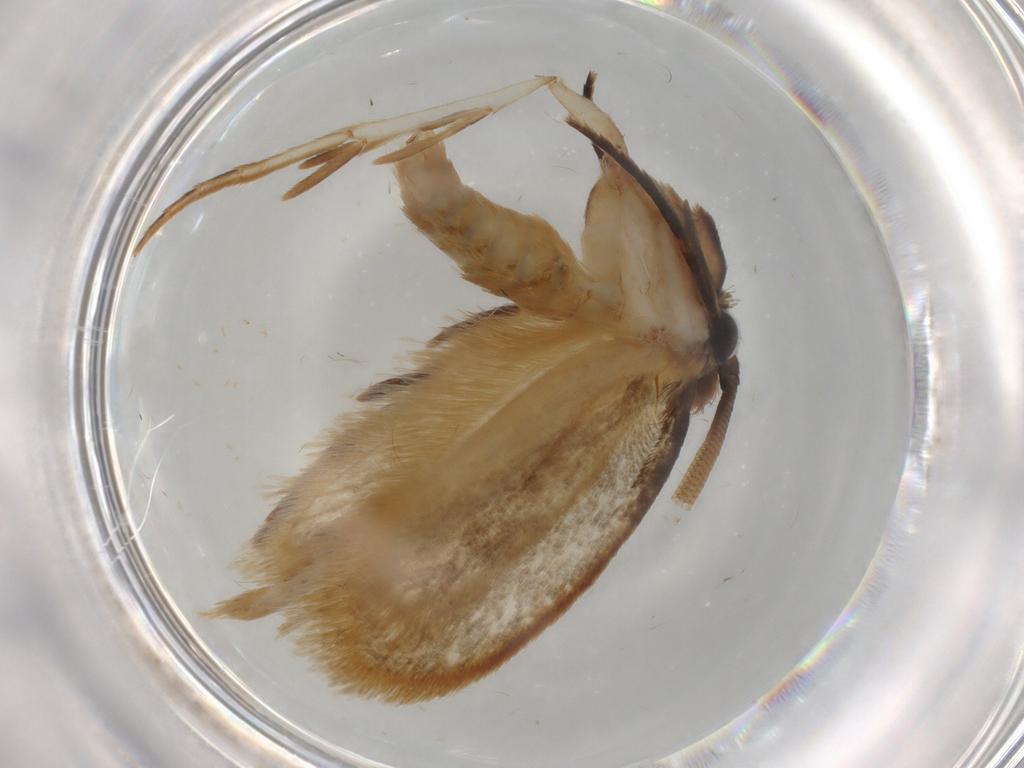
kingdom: Animalia
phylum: Arthropoda
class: Insecta
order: Lepidoptera
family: Tineidae
